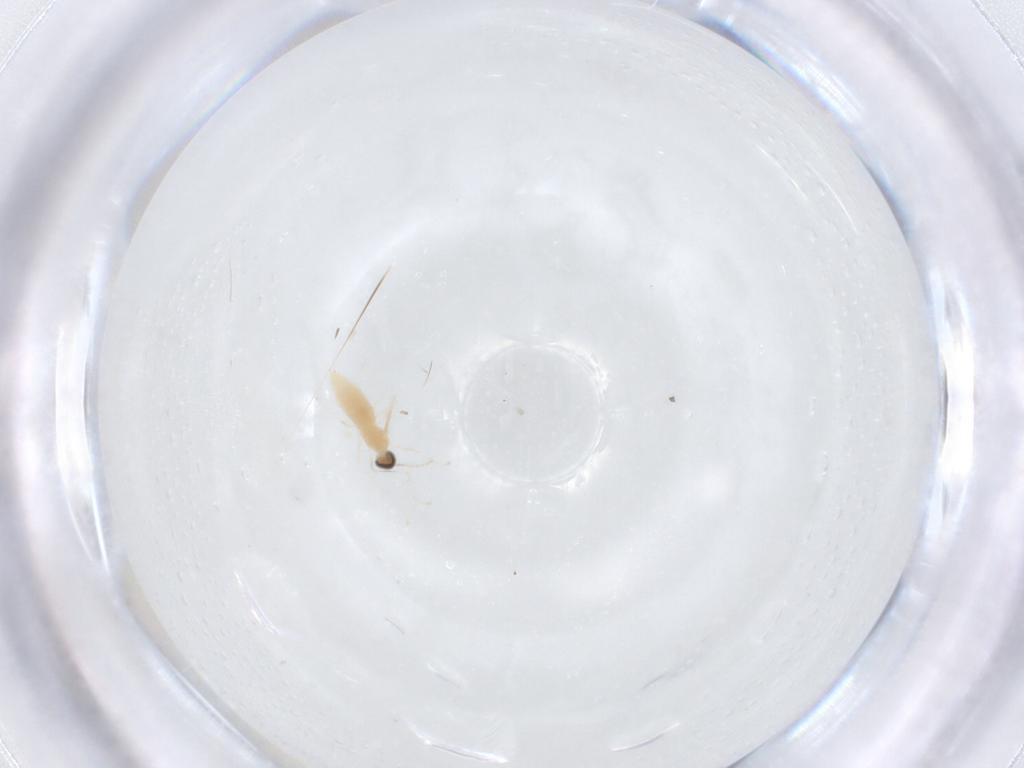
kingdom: Animalia
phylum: Arthropoda
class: Insecta
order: Diptera
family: Cecidomyiidae
